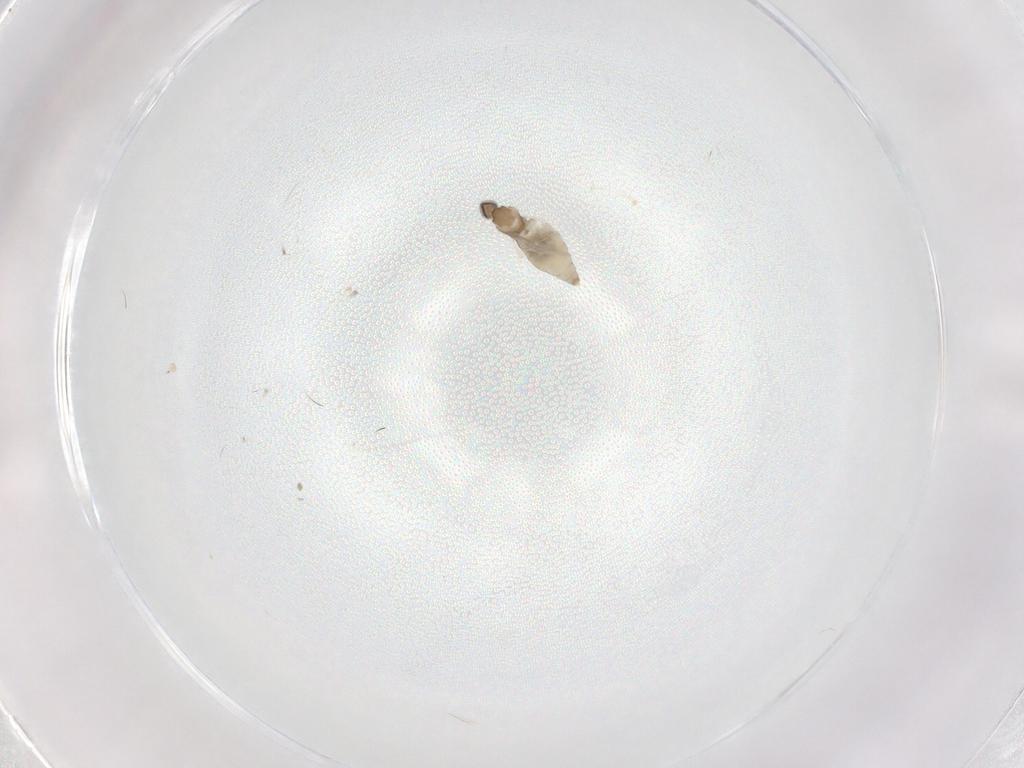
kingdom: Animalia
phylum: Arthropoda
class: Insecta
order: Diptera
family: Cecidomyiidae
